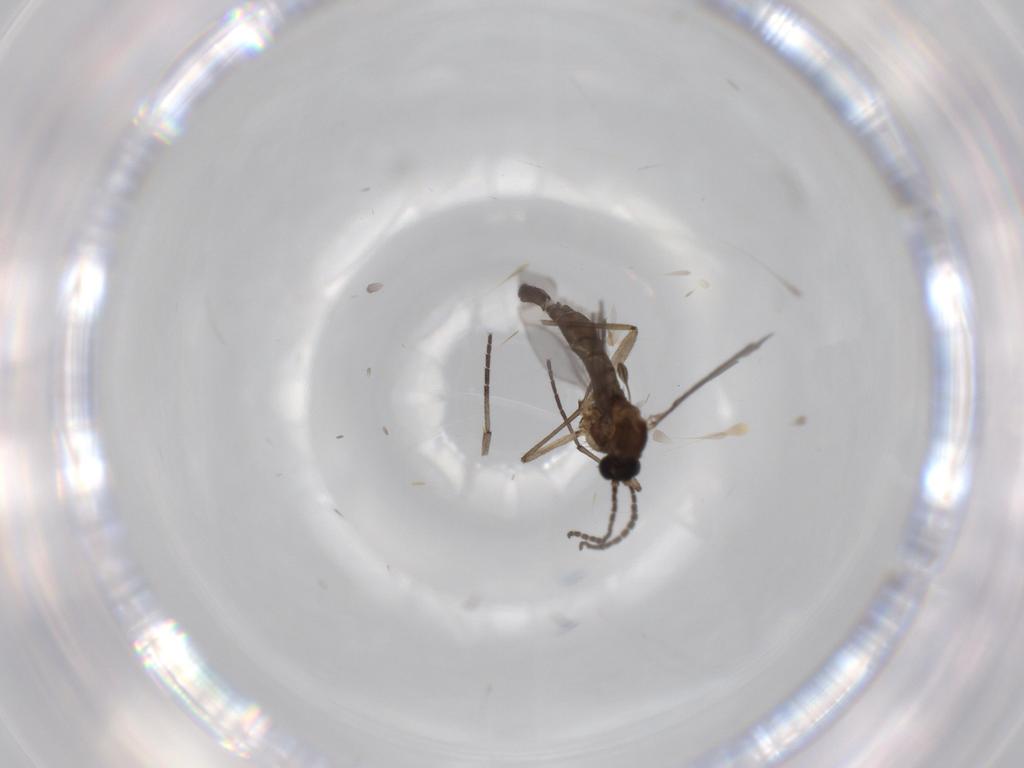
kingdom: Animalia
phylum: Arthropoda
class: Insecta
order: Diptera
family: Sciaridae
